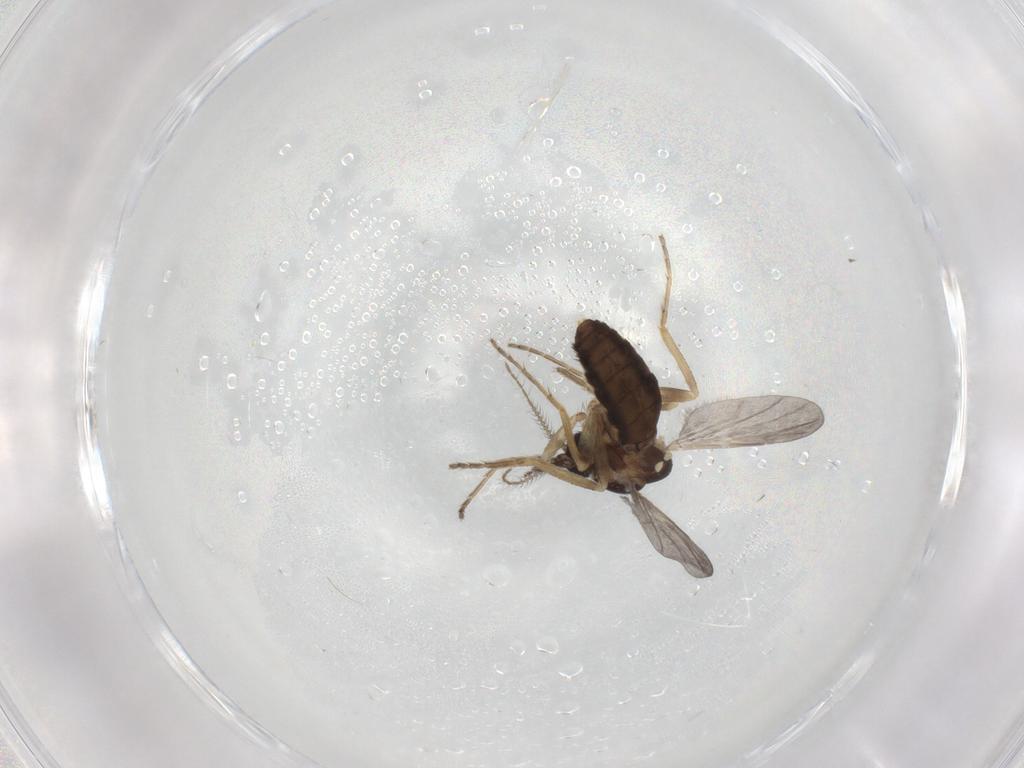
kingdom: Animalia
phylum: Arthropoda
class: Insecta
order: Diptera
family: Ceratopogonidae
